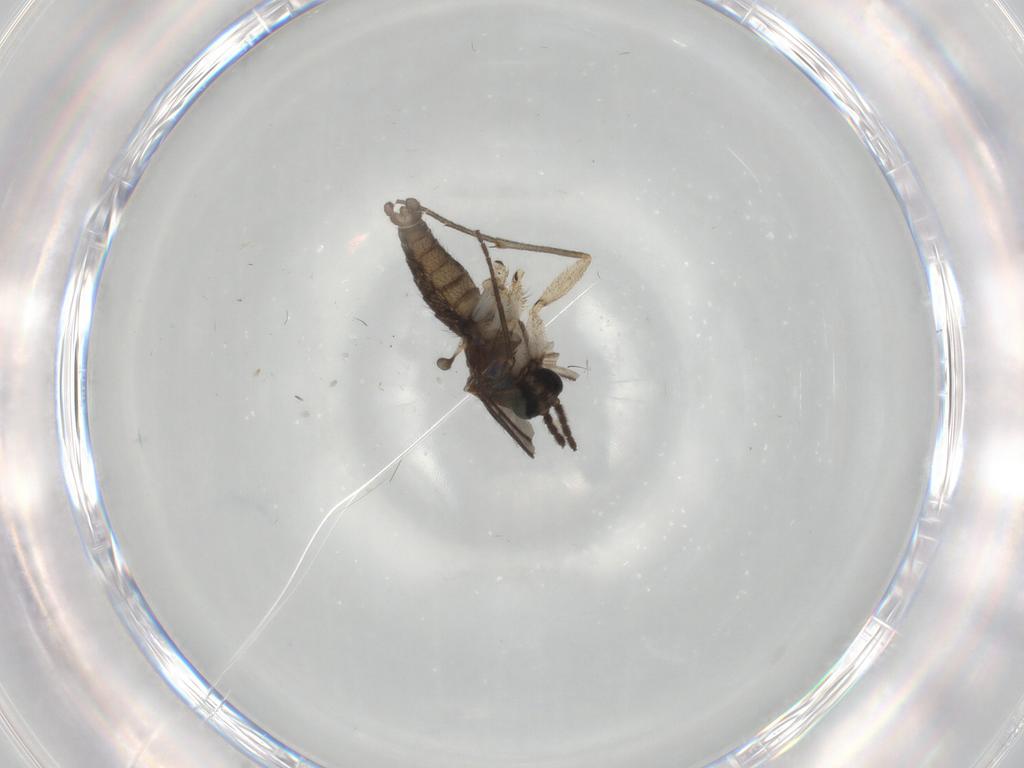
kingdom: Animalia
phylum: Arthropoda
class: Insecta
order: Diptera
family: Sciaridae
